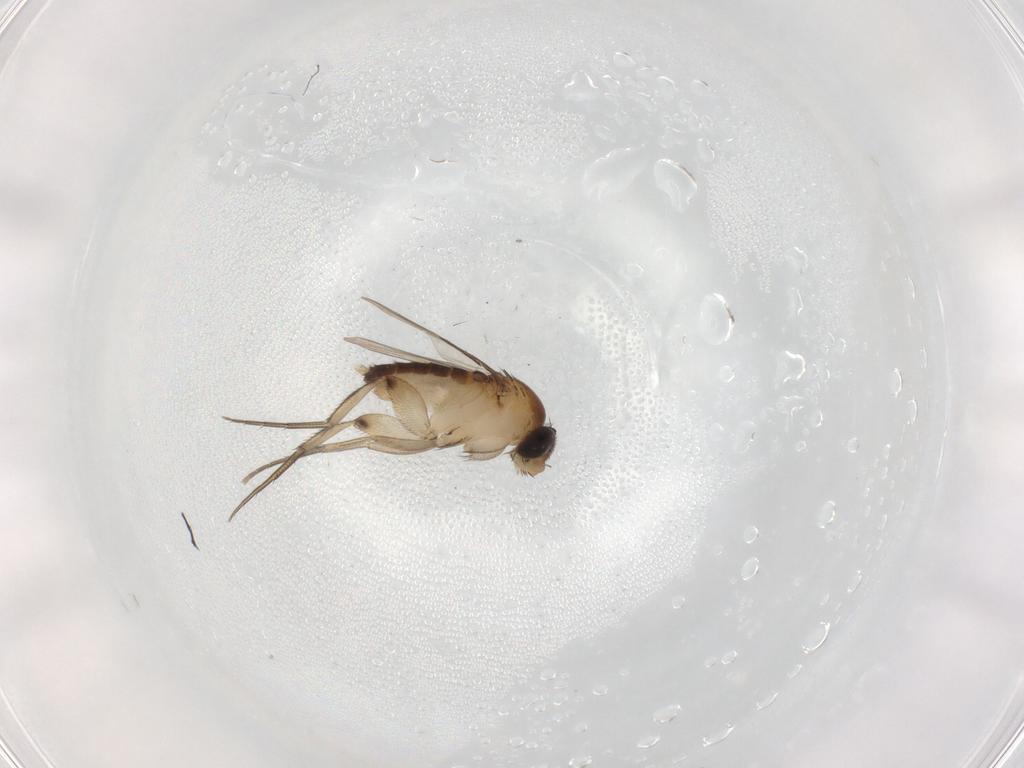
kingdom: Animalia
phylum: Arthropoda
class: Insecta
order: Diptera
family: Phoridae
